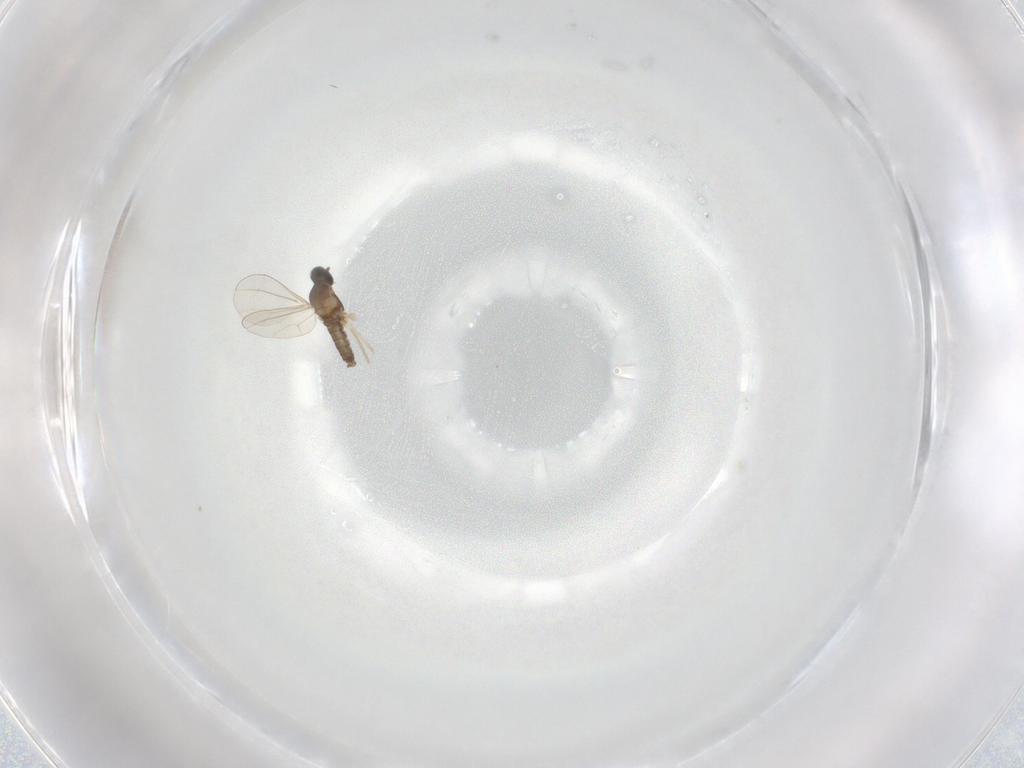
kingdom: Animalia
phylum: Arthropoda
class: Insecta
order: Diptera
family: Cecidomyiidae
